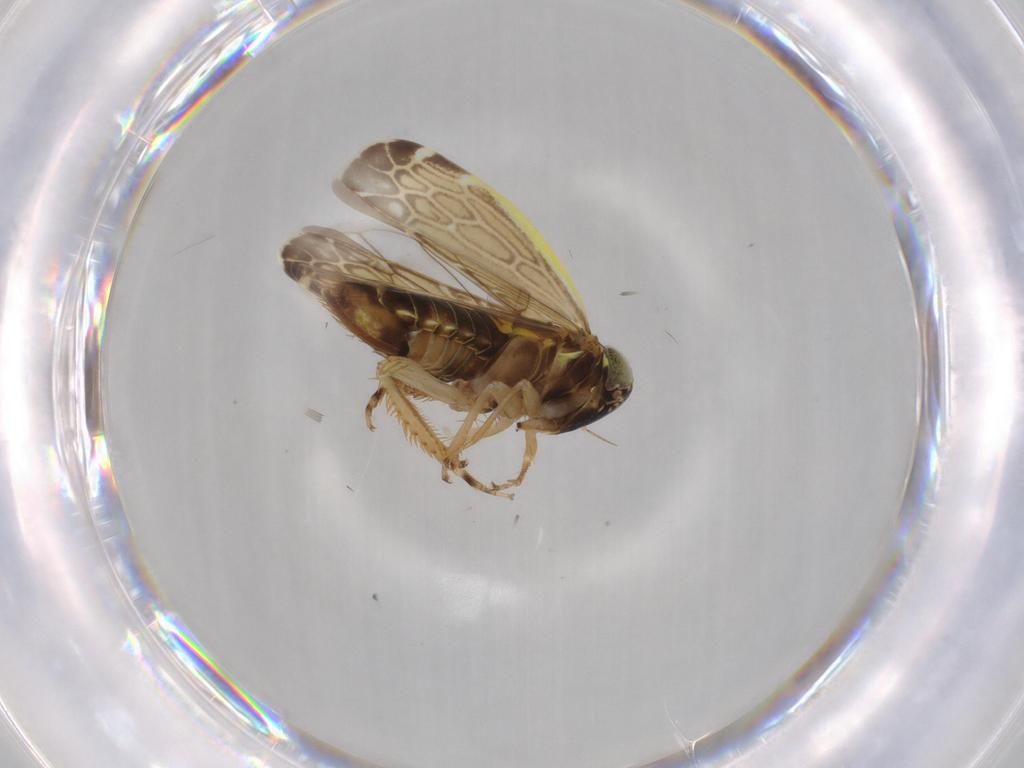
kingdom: Animalia
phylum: Arthropoda
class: Insecta
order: Hemiptera
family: Cicadellidae
